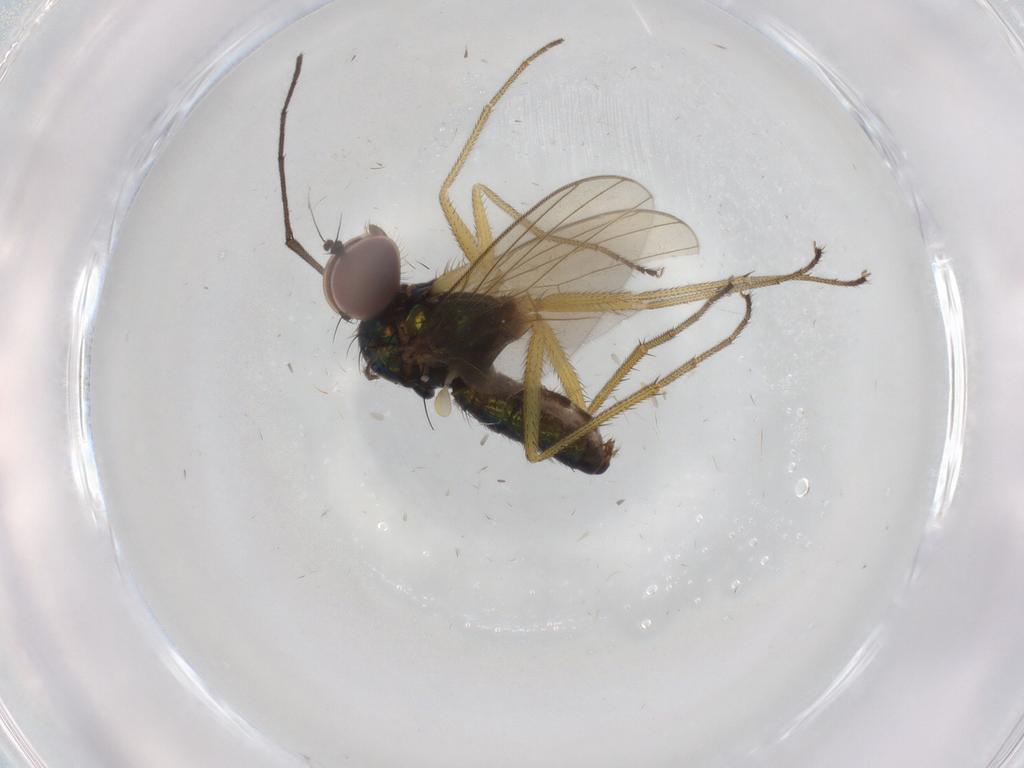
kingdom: Animalia
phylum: Arthropoda
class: Insecta
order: Diptera
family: Dolichopodidae
